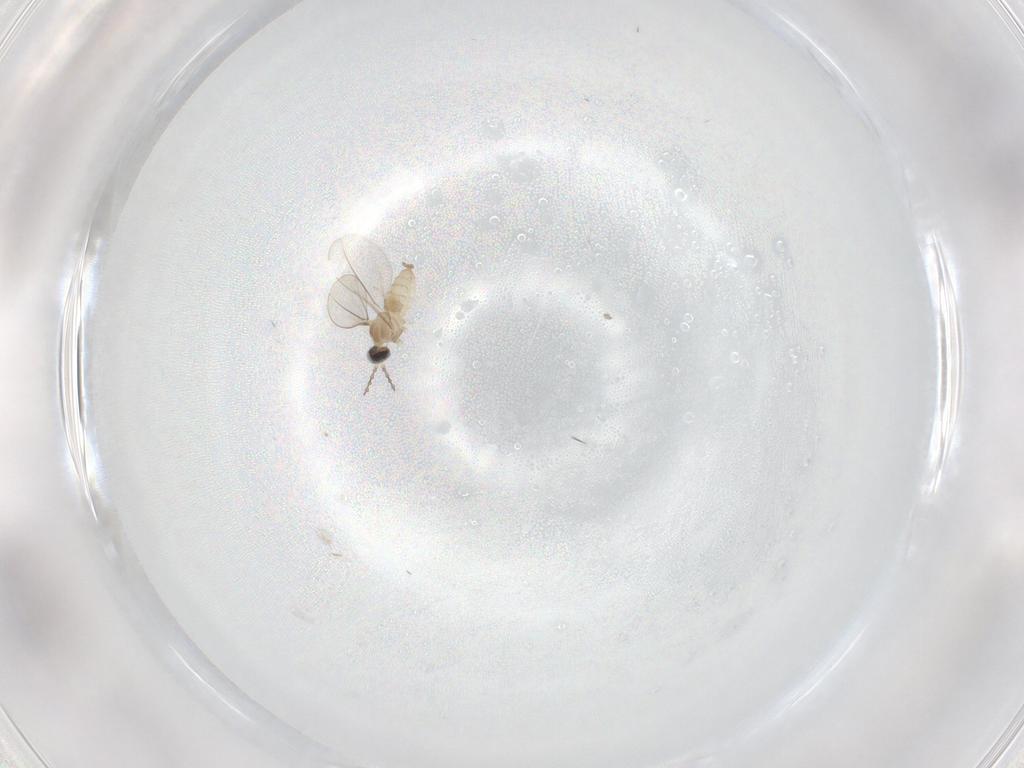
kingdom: Animalia
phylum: Arthropoda
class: Insecta
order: Diptera
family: Cecidomyiidae
